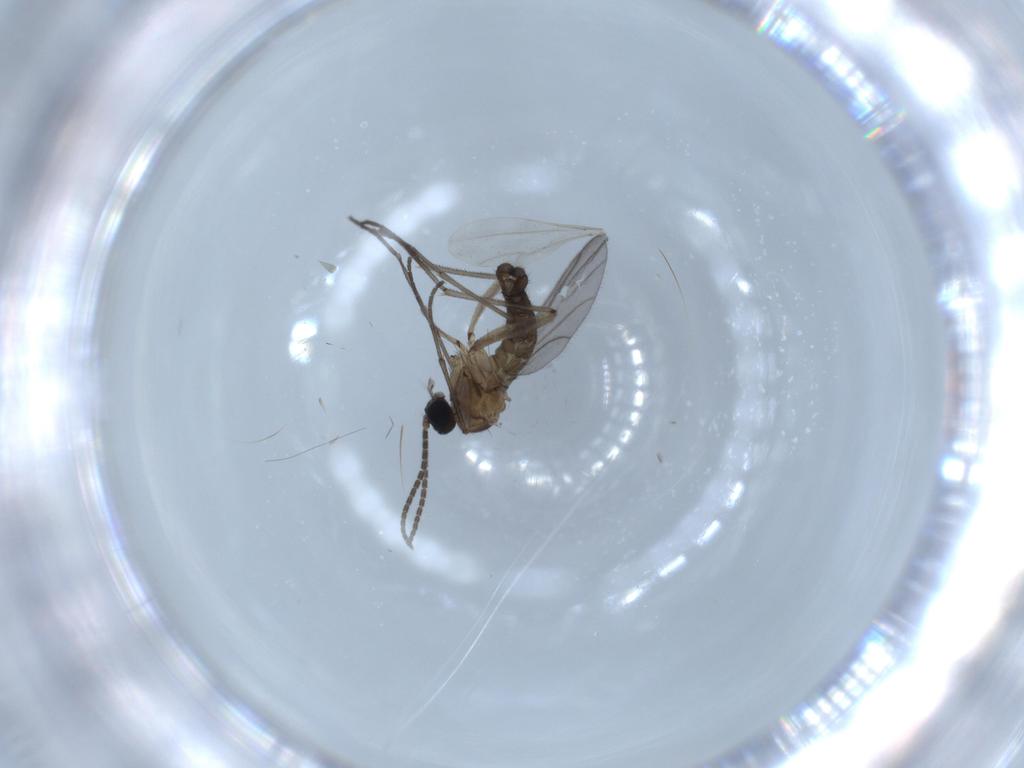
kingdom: Animalia
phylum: Arthropoda
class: Insecta
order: Diptera
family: Sciaridae
